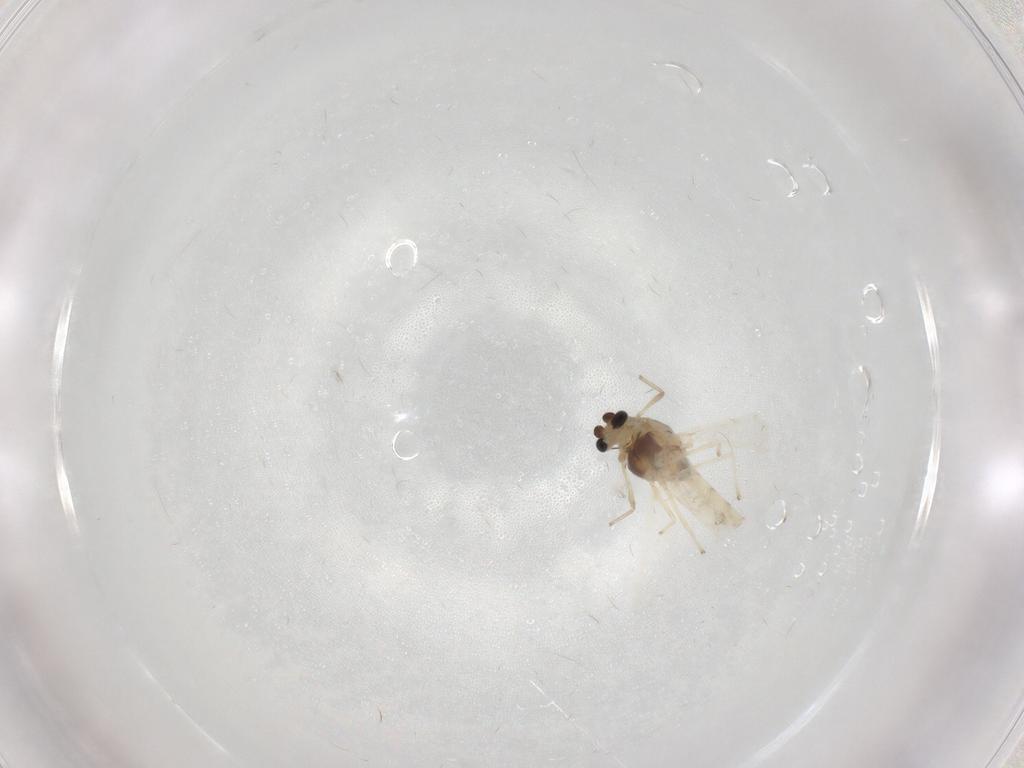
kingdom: Animalia
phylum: Arthropoda
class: Insecta
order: Diptera
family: Chironomidae
